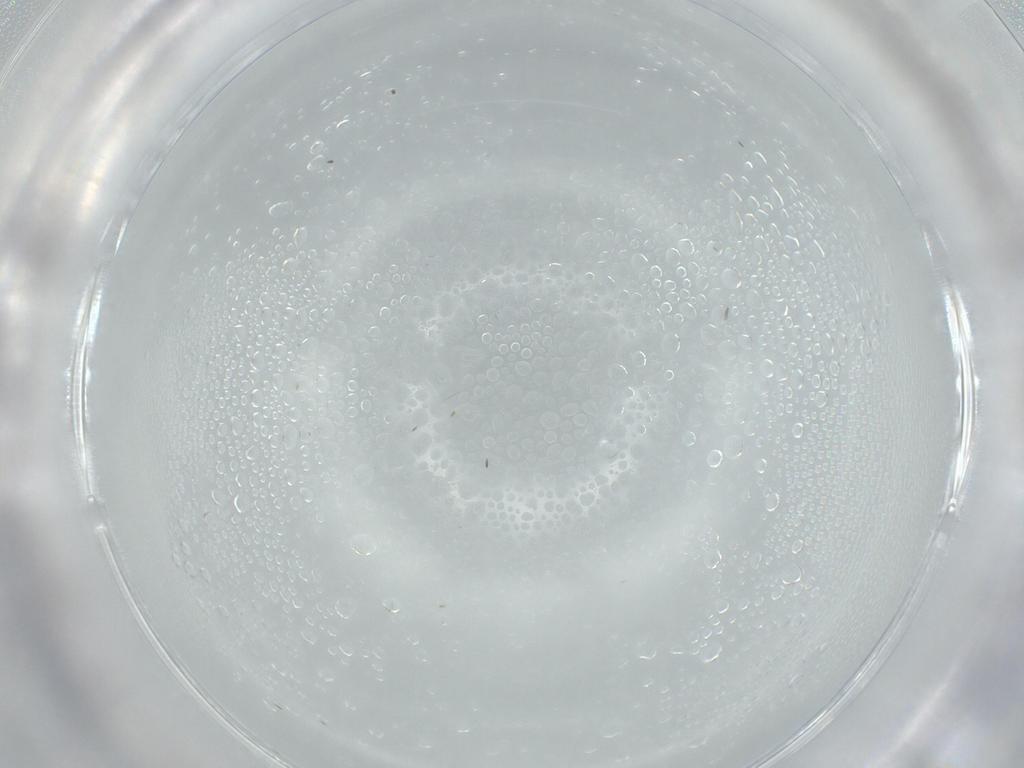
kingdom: Animalia
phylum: Arthropoda
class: Insecta
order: Hymenoptera
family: Mymaridae
